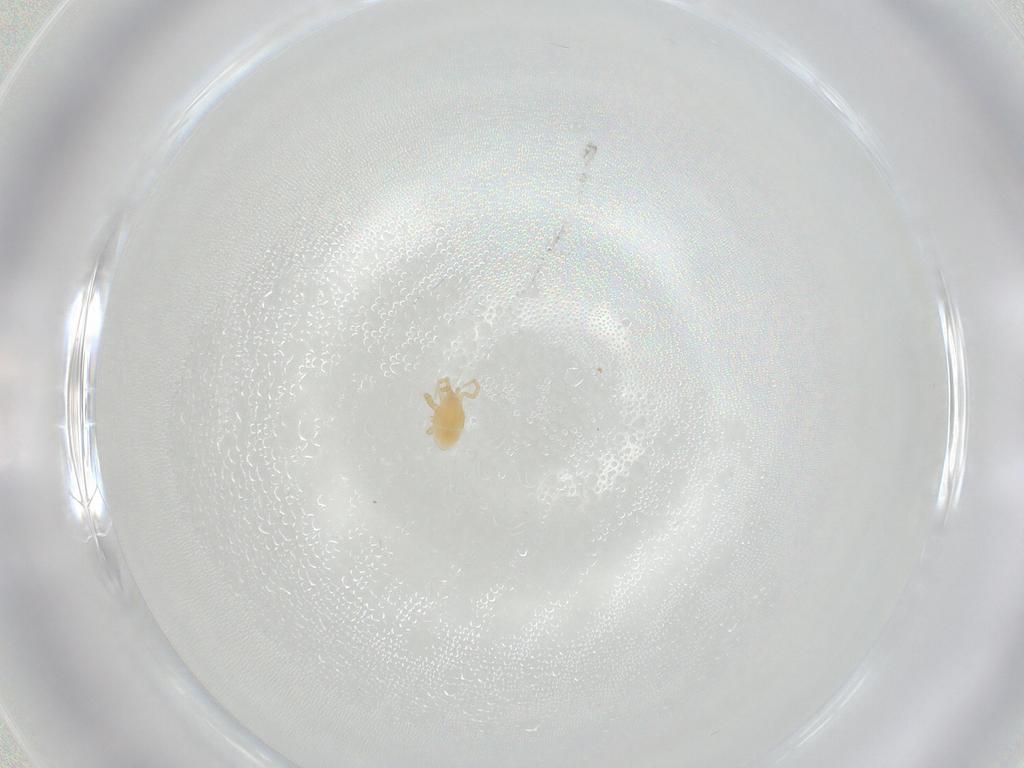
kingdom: Animalia
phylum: Arthropoda
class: Arachnida
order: Mesostigmata
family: Parasitidae
